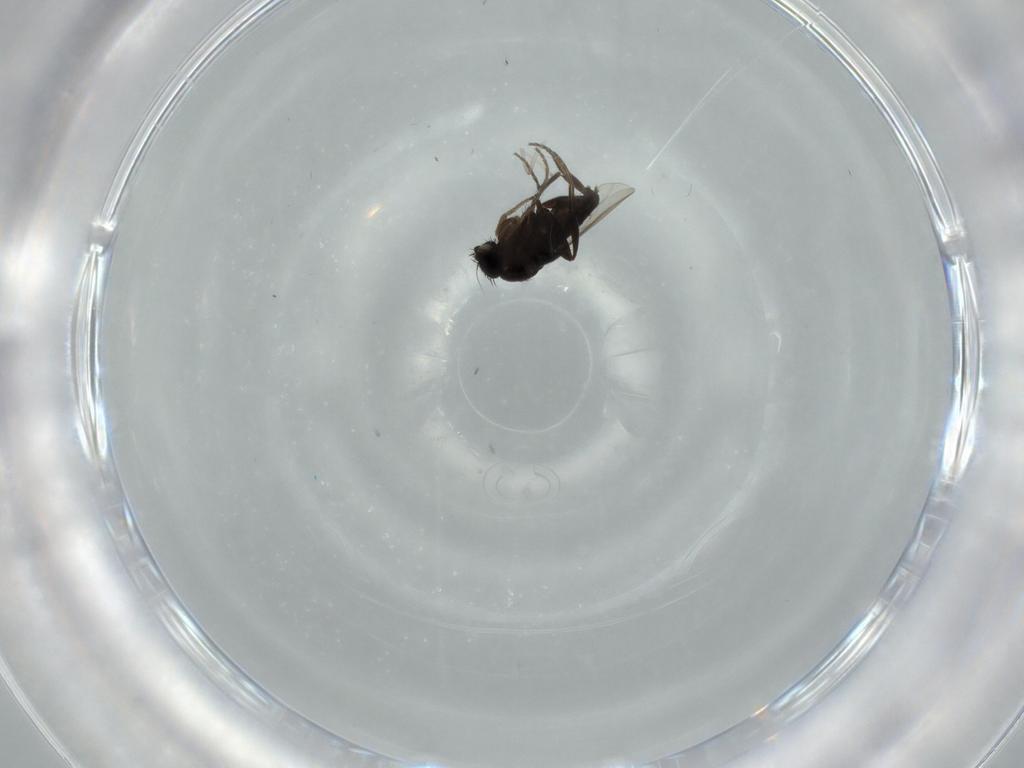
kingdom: Animalia
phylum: Arthropoda
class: Insecta
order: Diptera
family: Phoridae
